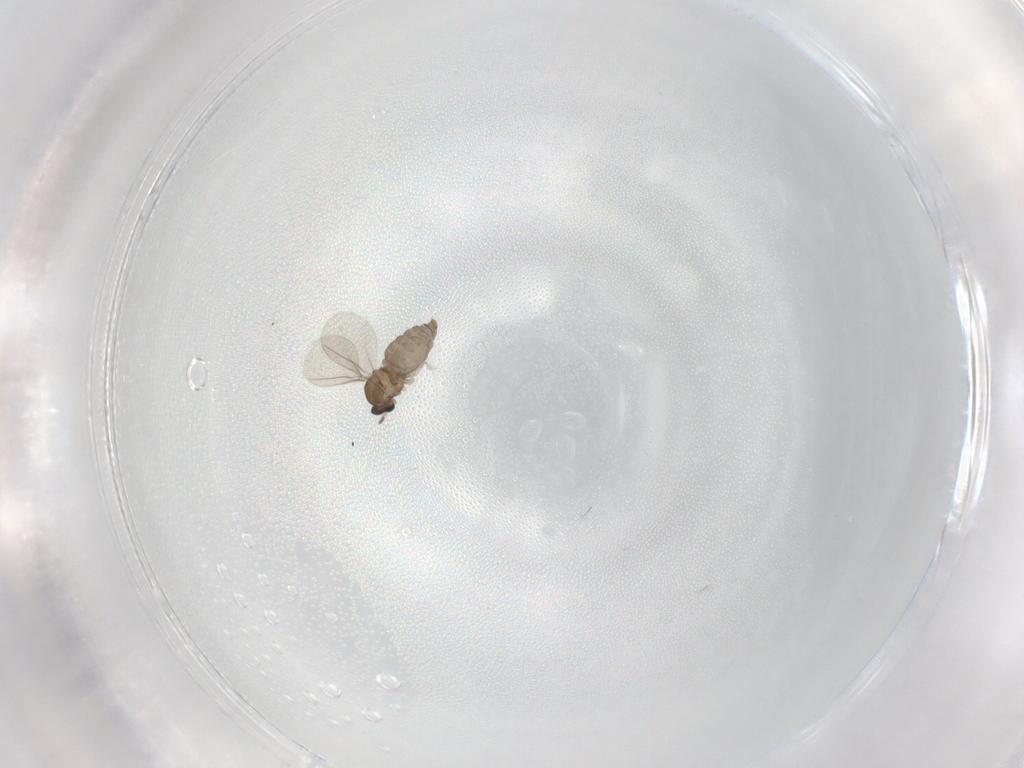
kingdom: Animalia
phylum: Arthropoda
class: Insecta
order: Diptera
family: Cecidomyiidae
